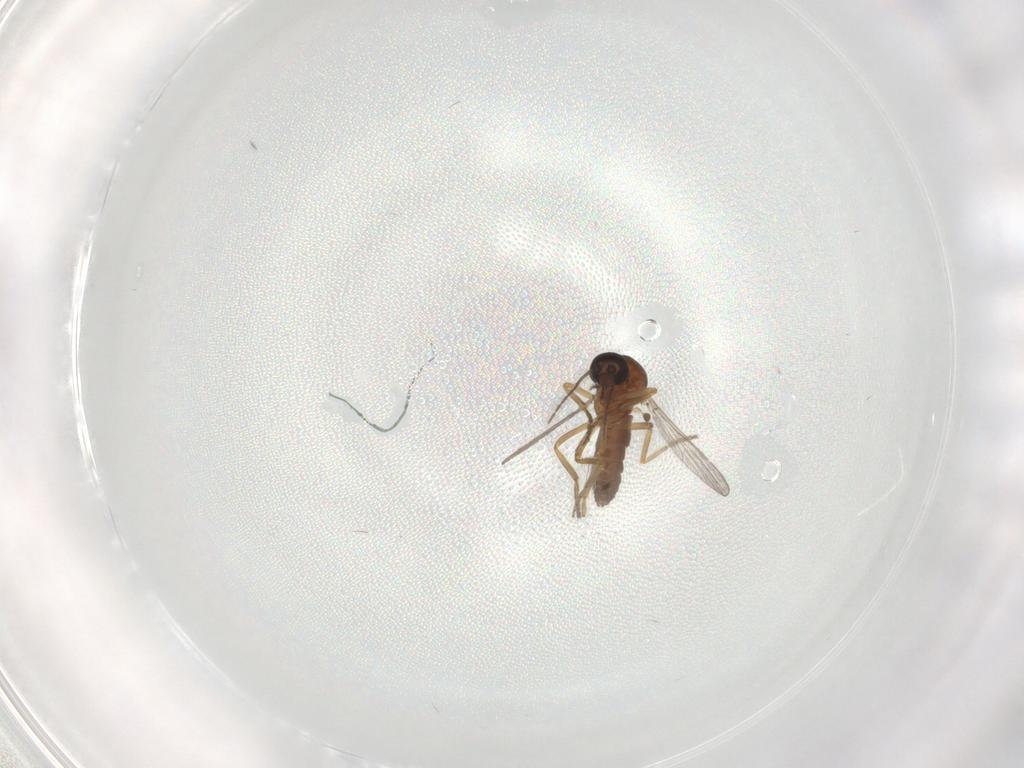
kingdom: Animalia
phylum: Arthropoda
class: Insecta
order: Diptera
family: Ceratopogonidae
